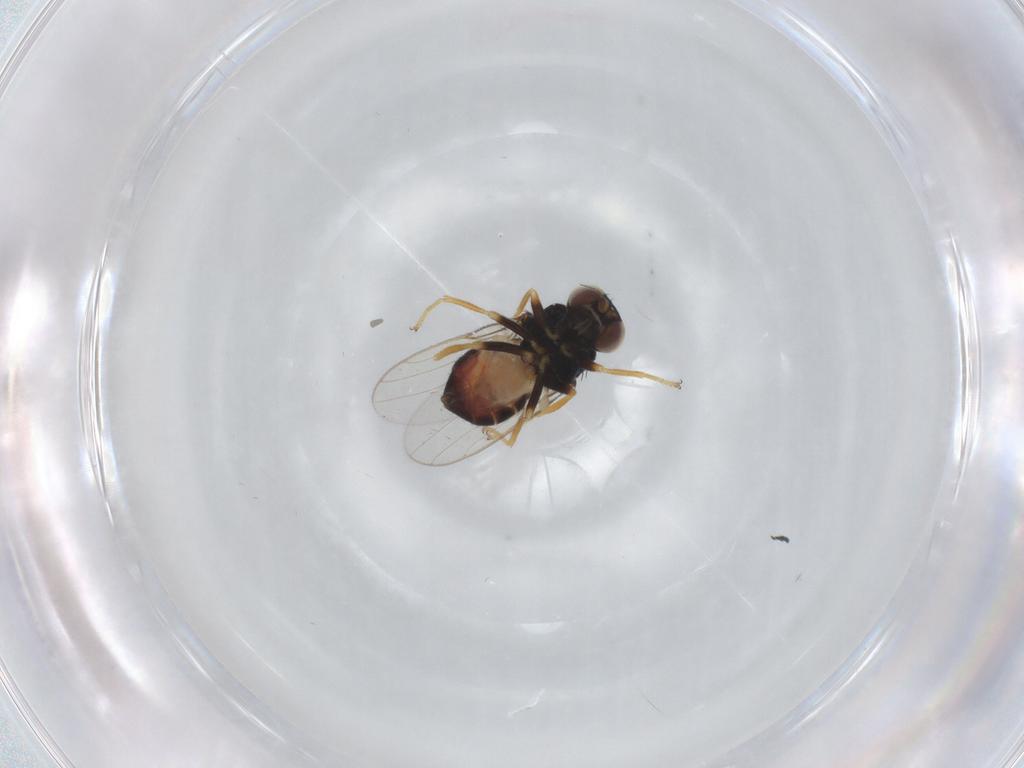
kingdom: Animalia
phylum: Arthropoda
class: Insecta
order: Diptera
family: Chloropidae
